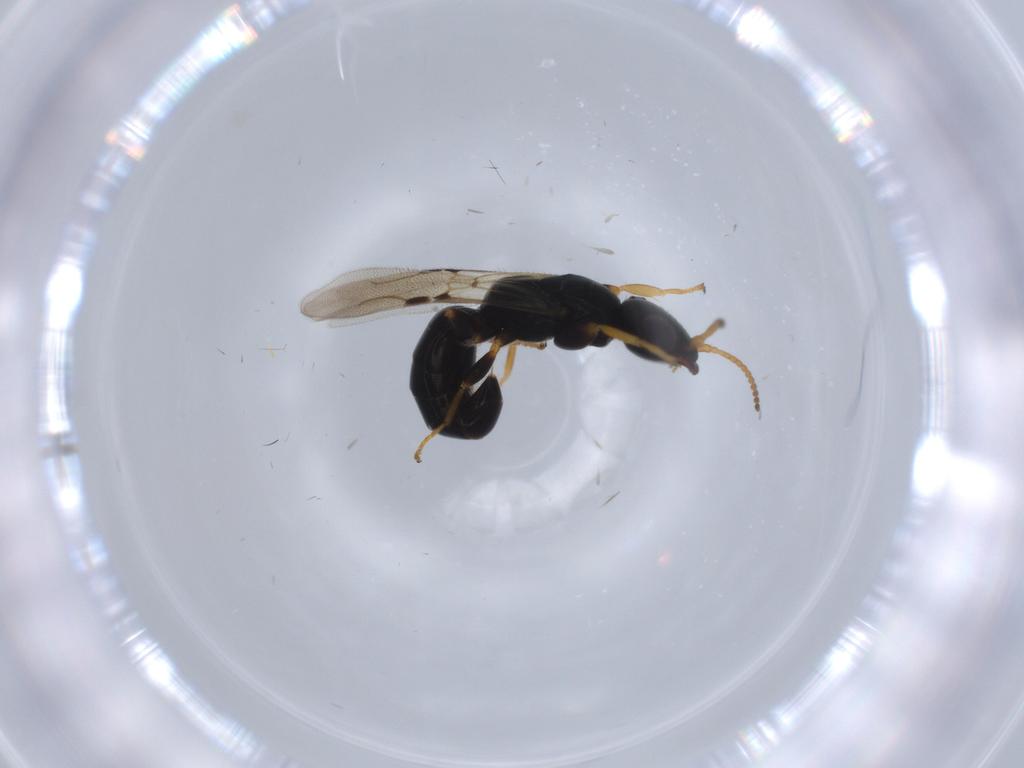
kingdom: Animalia
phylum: Arthropoda
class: Insecta
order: Hymenoptera
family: Bethylidae
